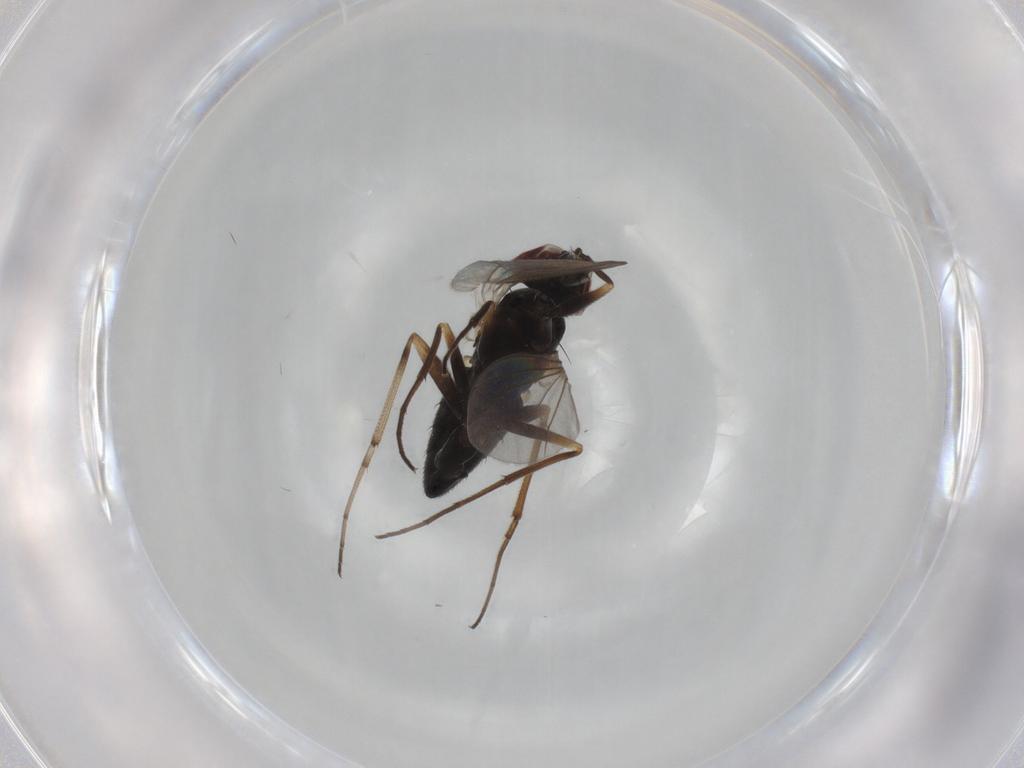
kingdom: Animalia
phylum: Arthropoda
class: Insecta
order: Diptera
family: Dolichopodidae
